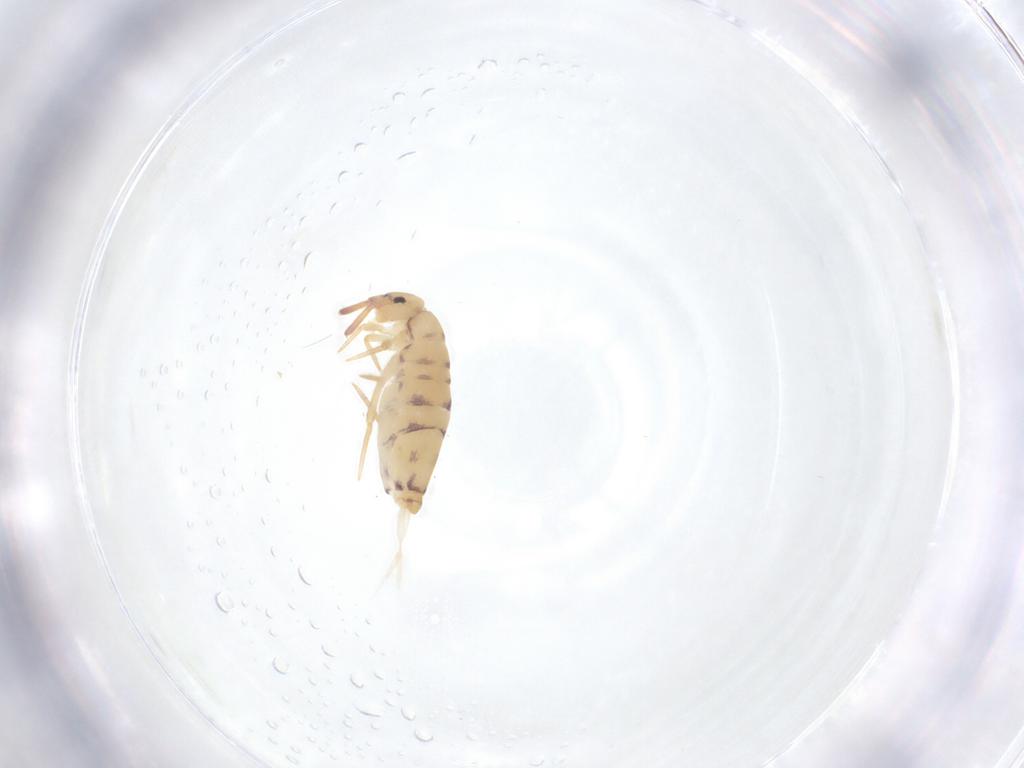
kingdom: Animalia
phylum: Arthropoda
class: Collembola
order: Entomobryomorpha
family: Entomobryidae
